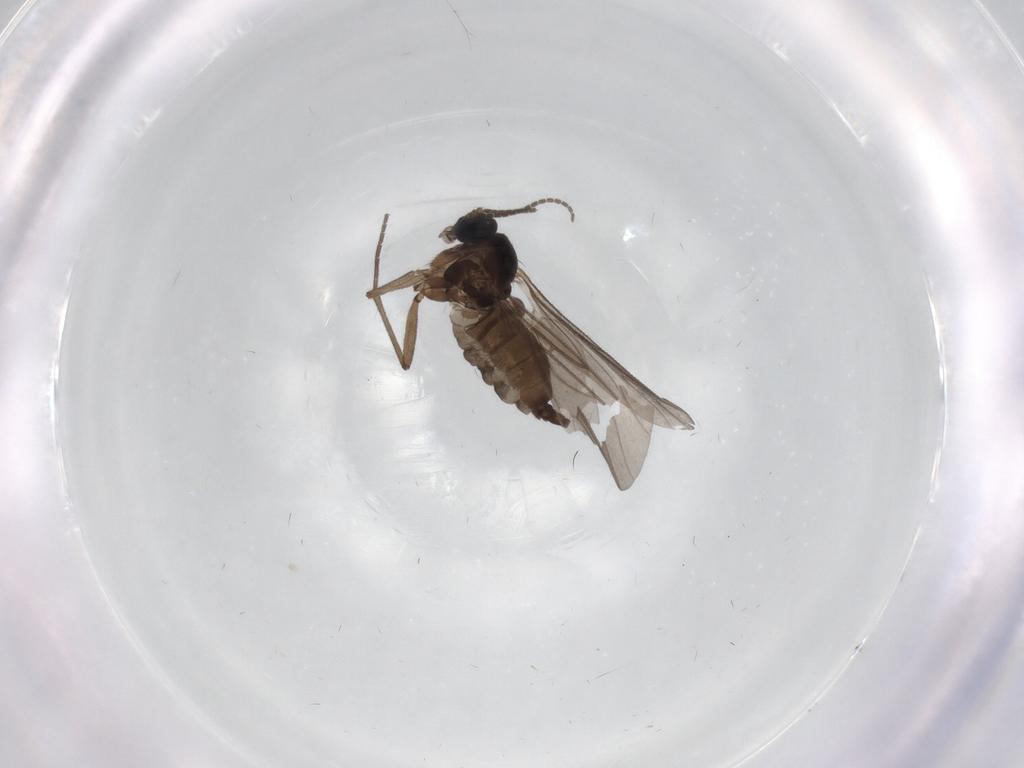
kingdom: Animalia
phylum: Arthropoda
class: Insecta
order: Diptera
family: Sciaridae
